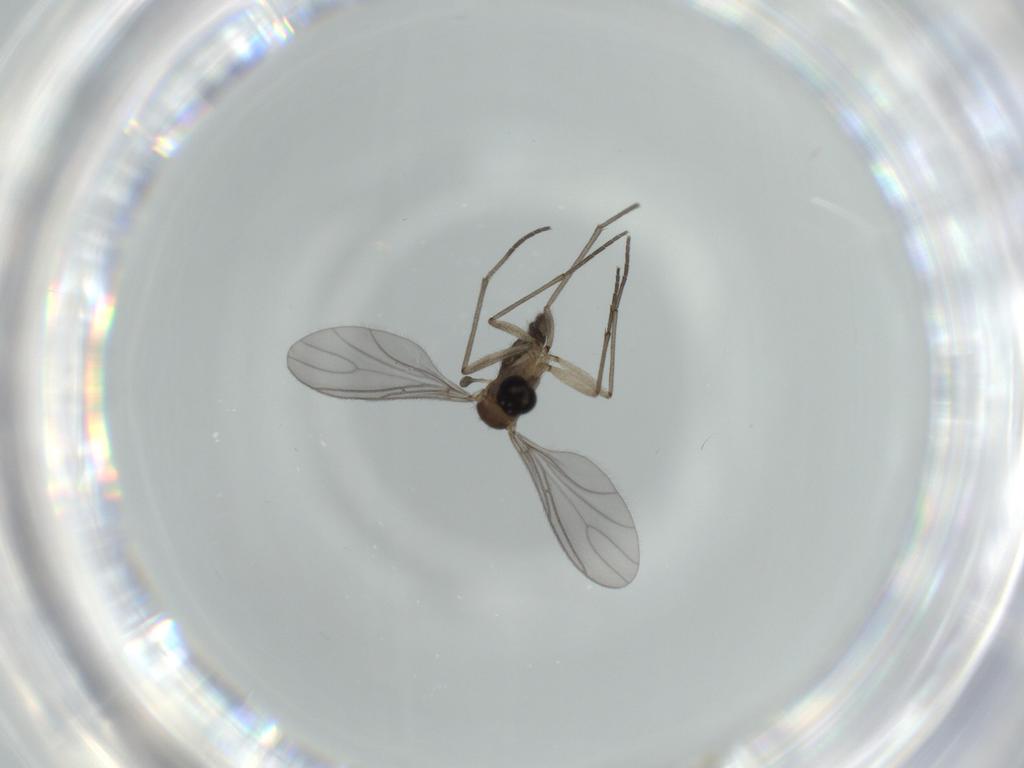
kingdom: Animalia
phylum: Arthropoda
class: Insecta
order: Diptera
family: Sciaridae
